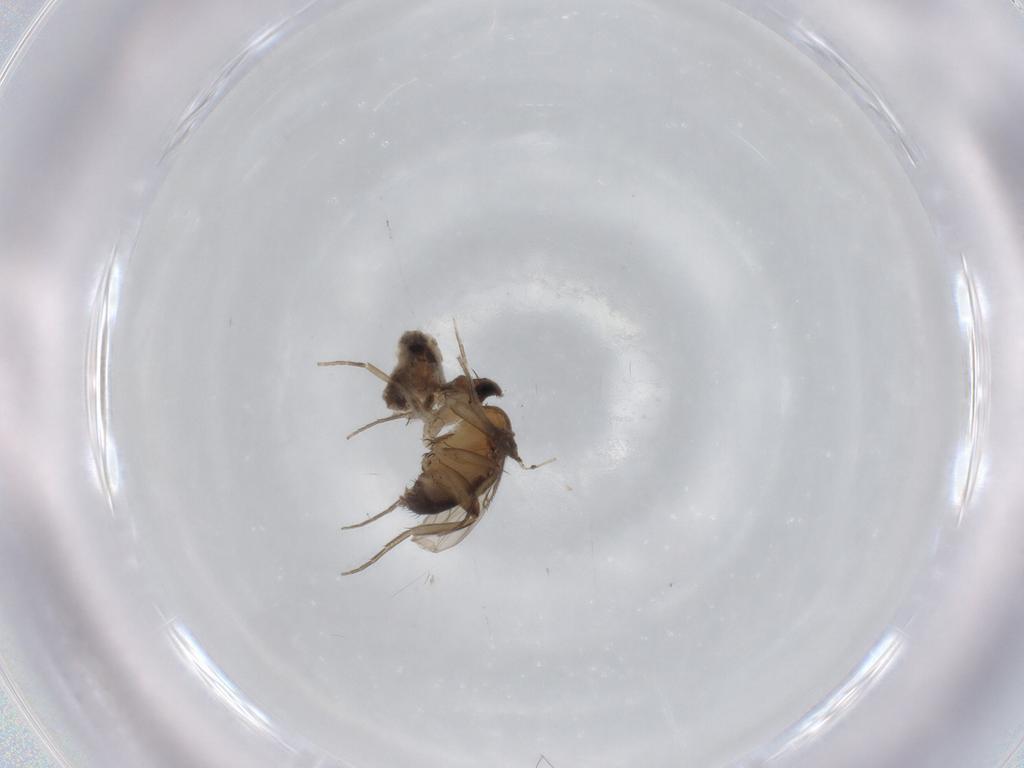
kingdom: Animalia
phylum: Arthropoda
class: Insecta
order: Diptera
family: Phoridae
